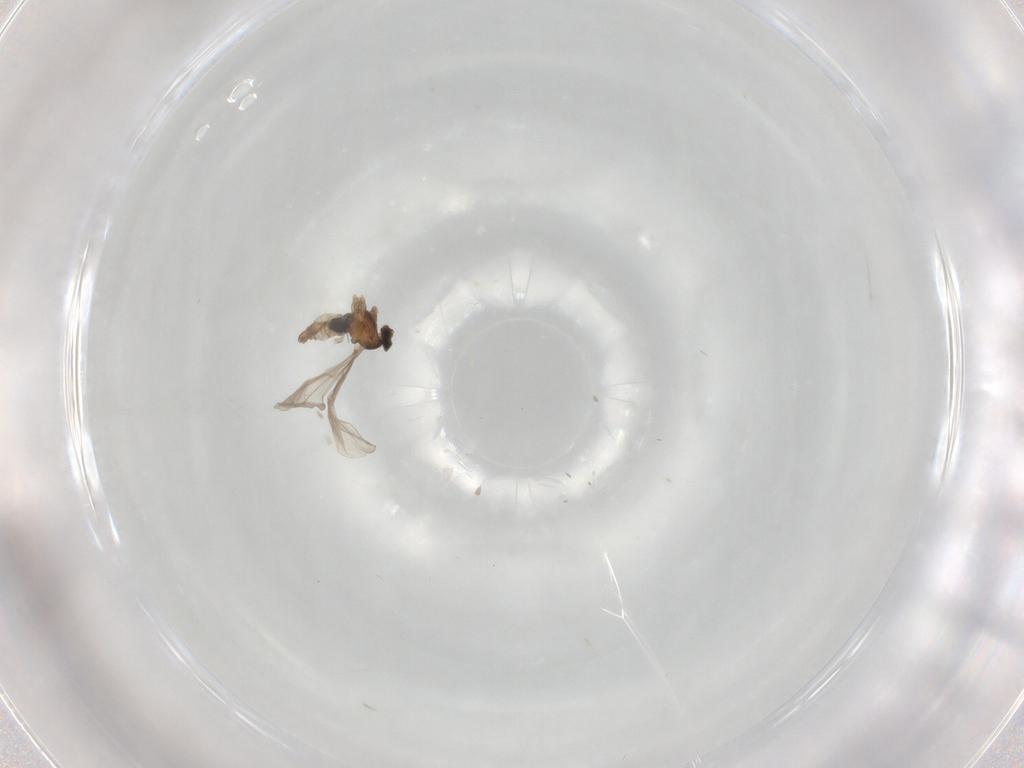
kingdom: Animalia
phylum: Arthropoda
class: Insecta
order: Diptera
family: Cecidomyiidae
